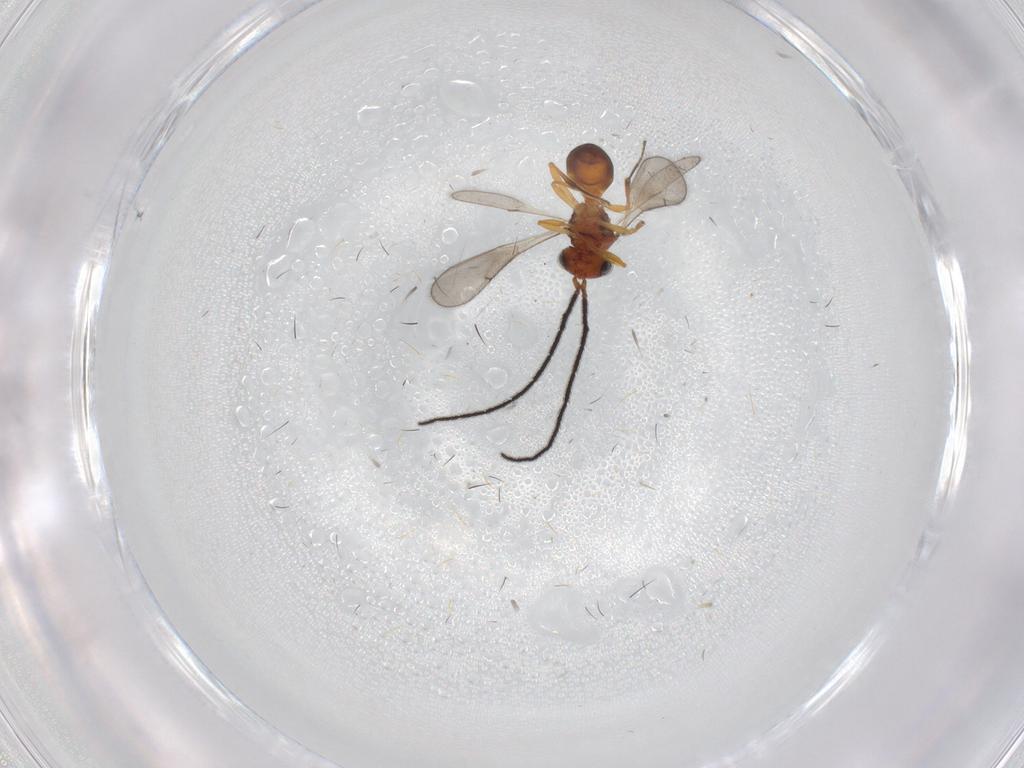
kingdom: Animalia
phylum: Arthropoda
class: Insecta
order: Hymenoptera
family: Scelionidae
